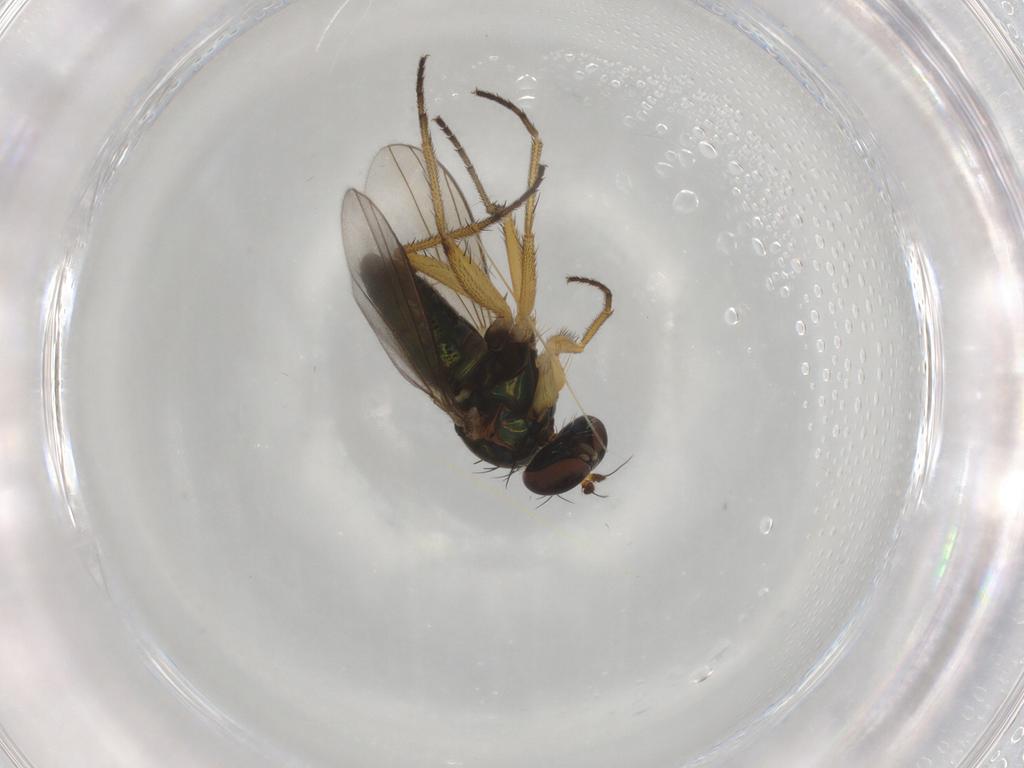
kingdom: Animalia
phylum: Arthropoda
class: Insecta
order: Diptera
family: Dolichopodidae
